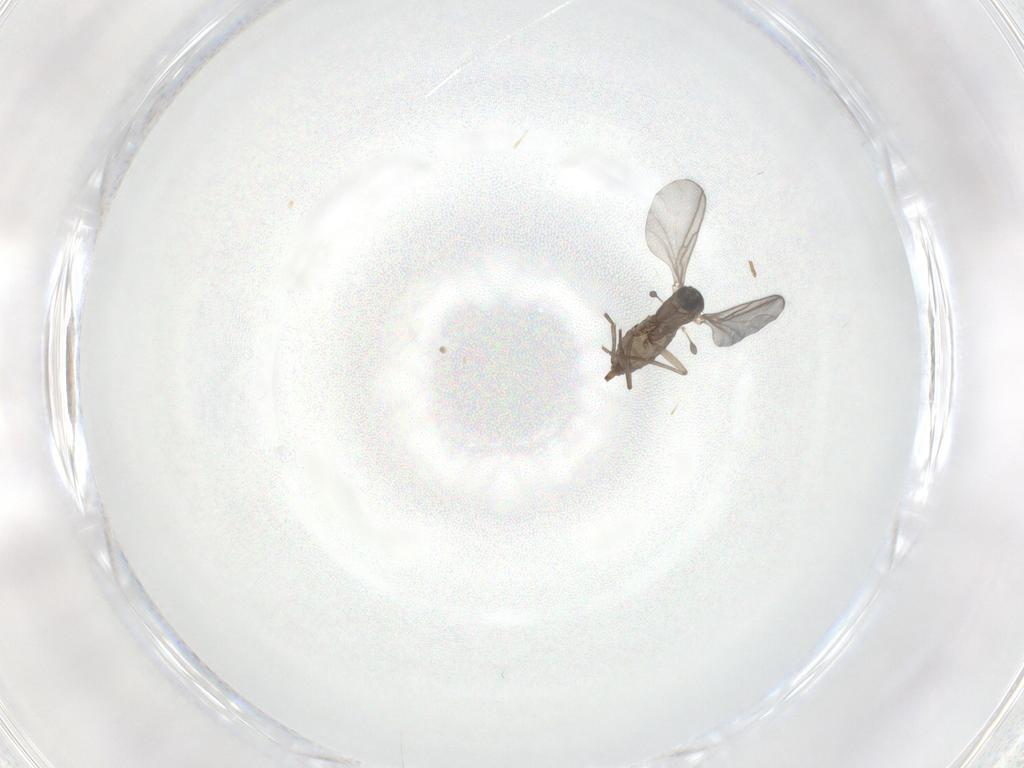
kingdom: Animalia
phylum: Arthropoda
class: Insecta
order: Diptera
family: Sciaridae
